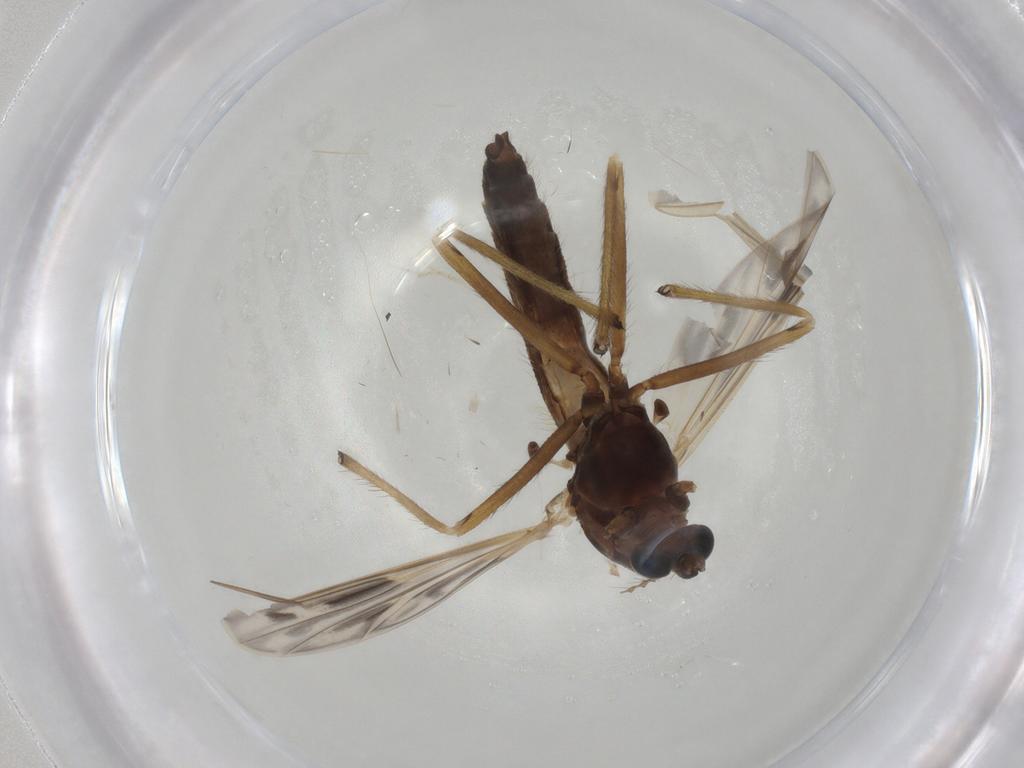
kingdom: Animalia
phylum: Arthropoda
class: Insecta
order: Diptera
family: Chironomidae
